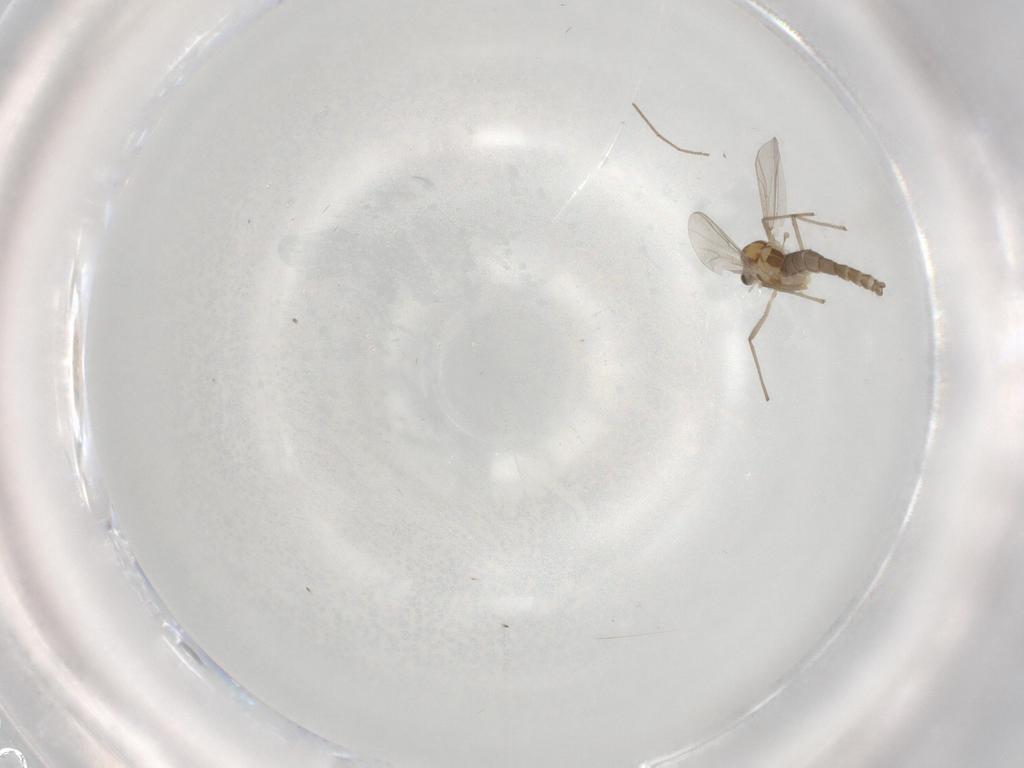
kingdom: Animalia
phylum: Arthropoda
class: Insecta
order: Diptera
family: Chironomidae
